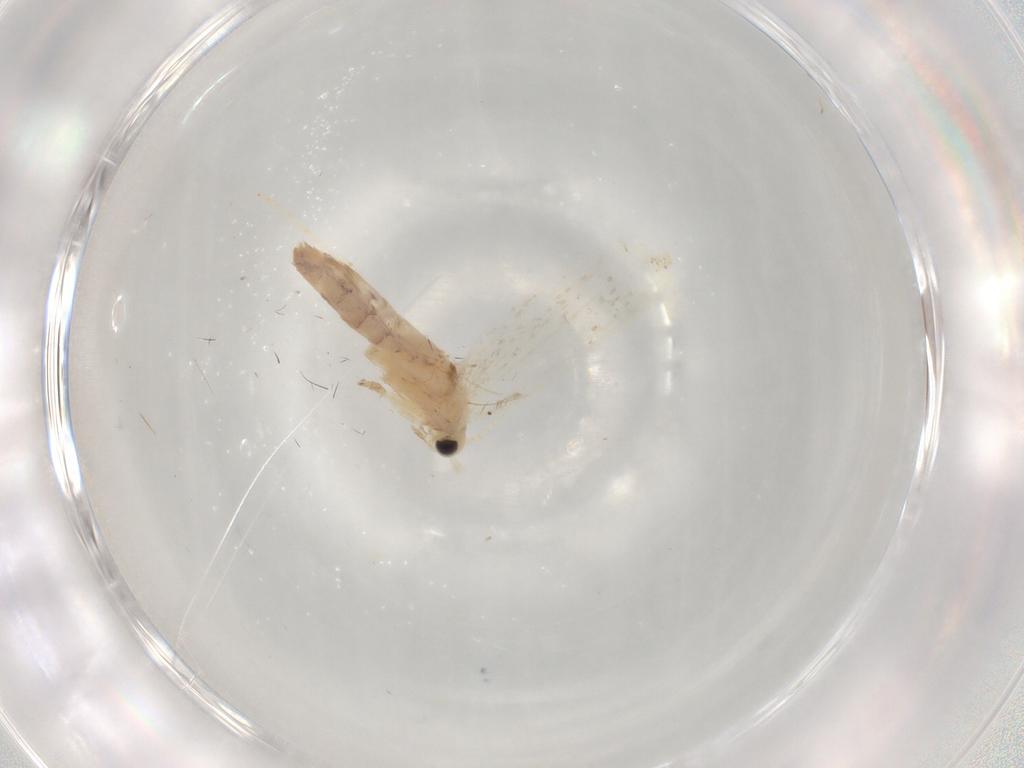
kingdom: Animalia
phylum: Arthropoda
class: Insecta
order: Lepidoptera
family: Dryadaulidae
